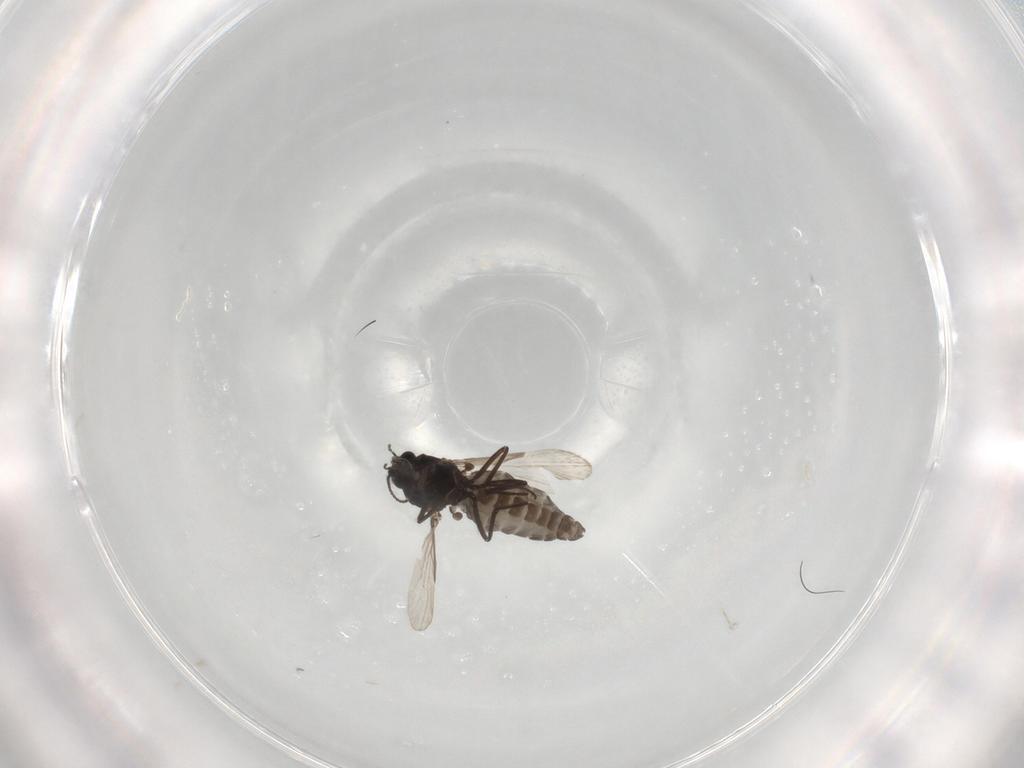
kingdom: Animalia
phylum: Arthropoda
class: Insecta
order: Diptera
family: Ceratopogonidae
